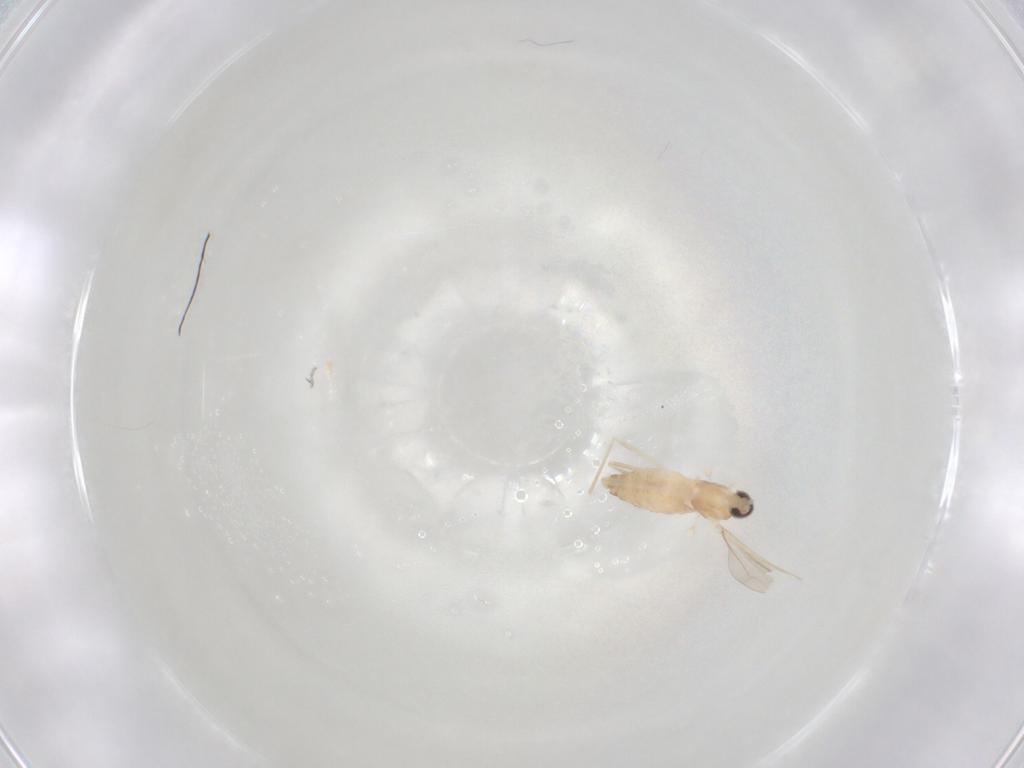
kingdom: Animalia
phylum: Arthropoda
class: Insecta
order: Diptera
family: Cecidomyiidae
